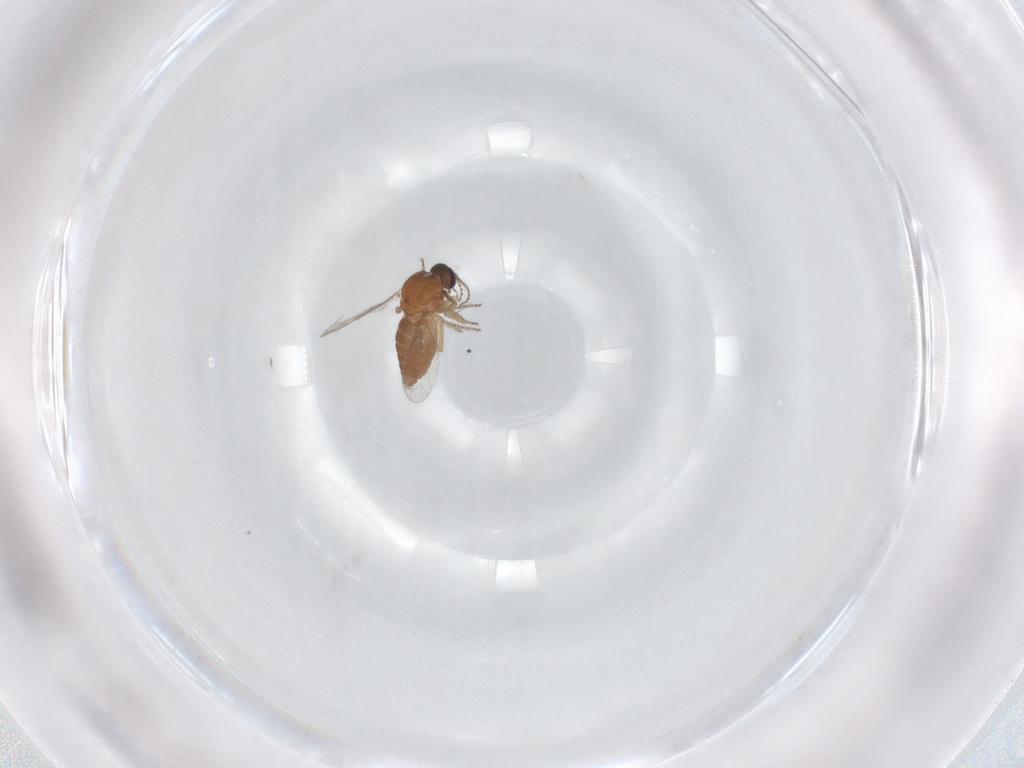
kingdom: Animalia
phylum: Arthropoda
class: Insecta
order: Diptera
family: Ceratopogonidae
